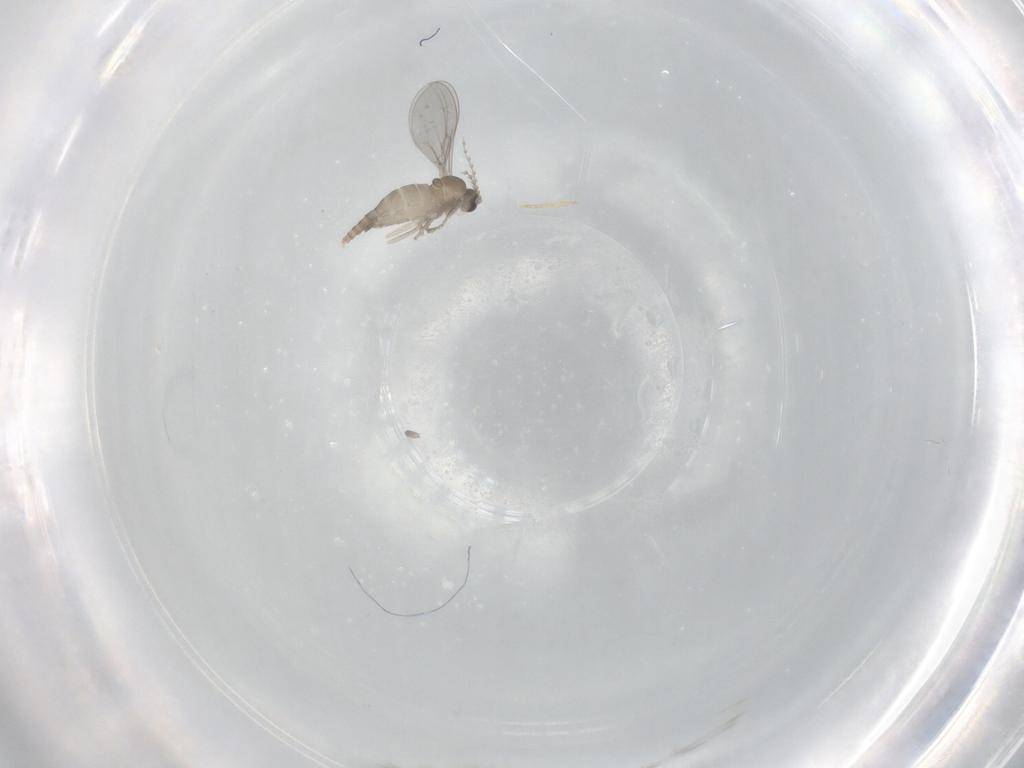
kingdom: Animalia
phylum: Arthropoda
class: Insecta
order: Diptera
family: Cecidomyiidae
